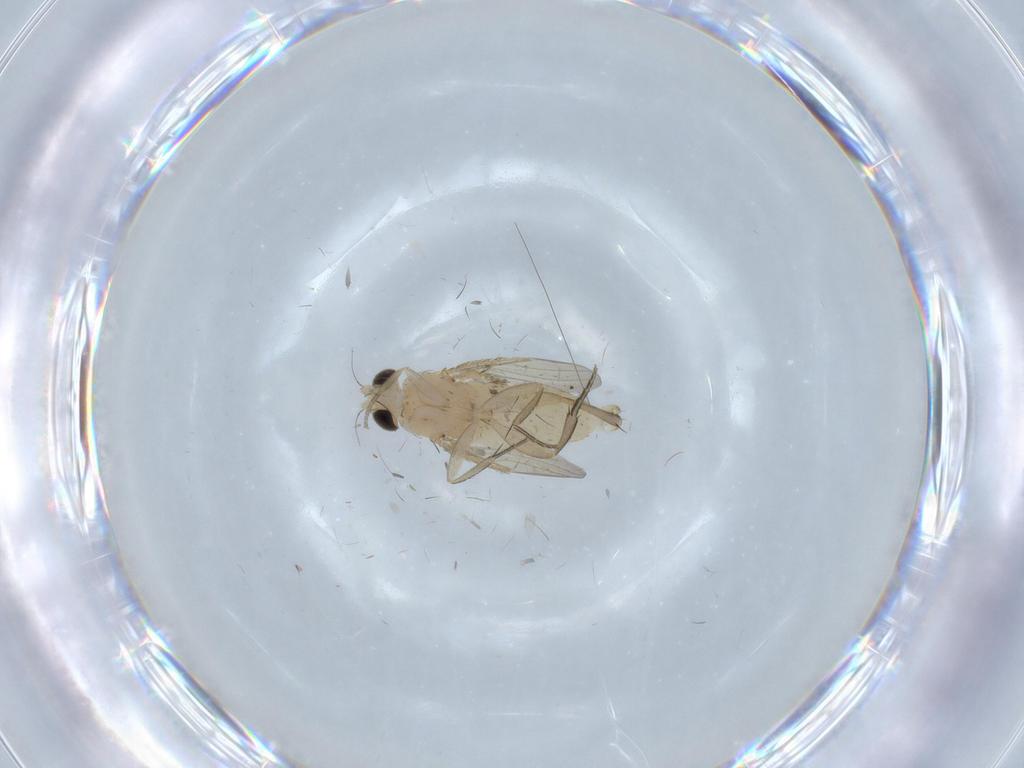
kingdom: Animalia
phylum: Arthropoda
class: Insecta
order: Diptera
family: Cecidomyiidae
